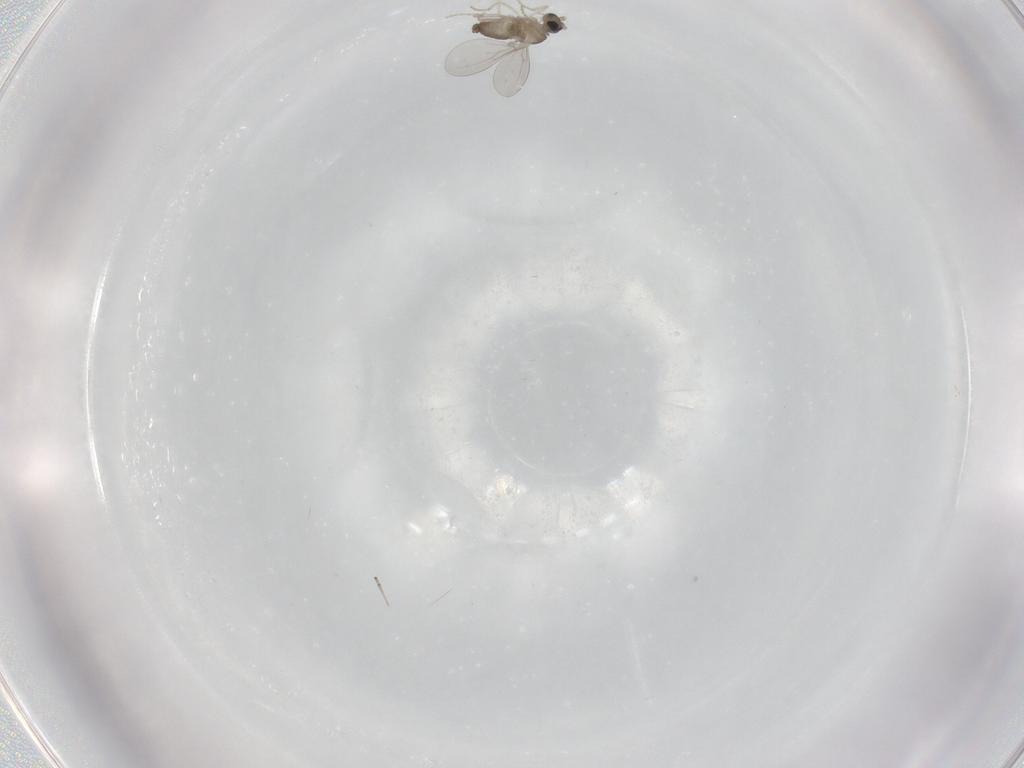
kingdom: Animalia
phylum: Arthropoda
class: Insecta
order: Diptera
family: Cecidomyiidae
